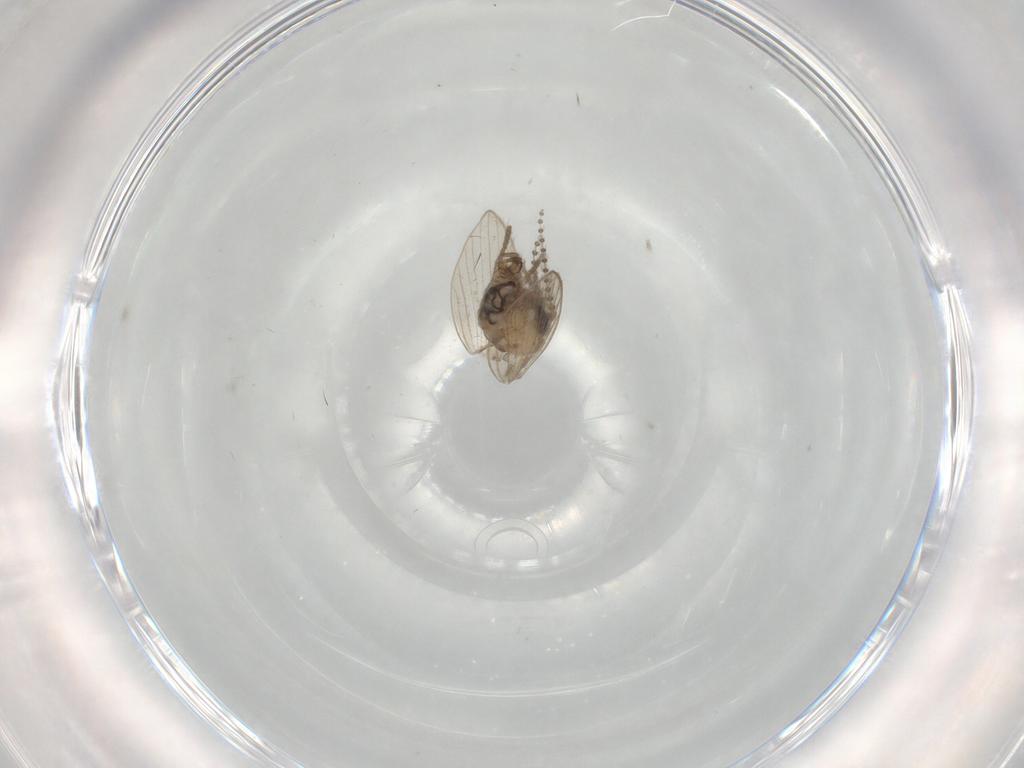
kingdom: Animalia
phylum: Arthropoda
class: Insecta
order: Diptera
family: Psychodidae
